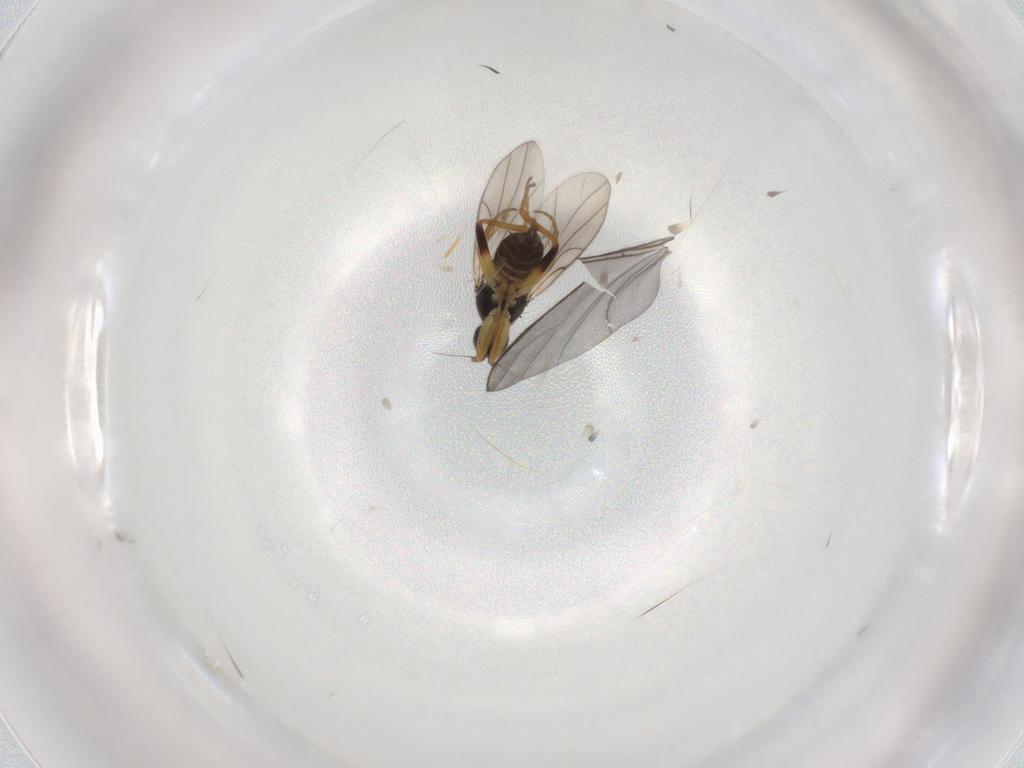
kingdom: Animalia
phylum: Arthropoda
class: Insecta
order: Diptera
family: Hybotidae
